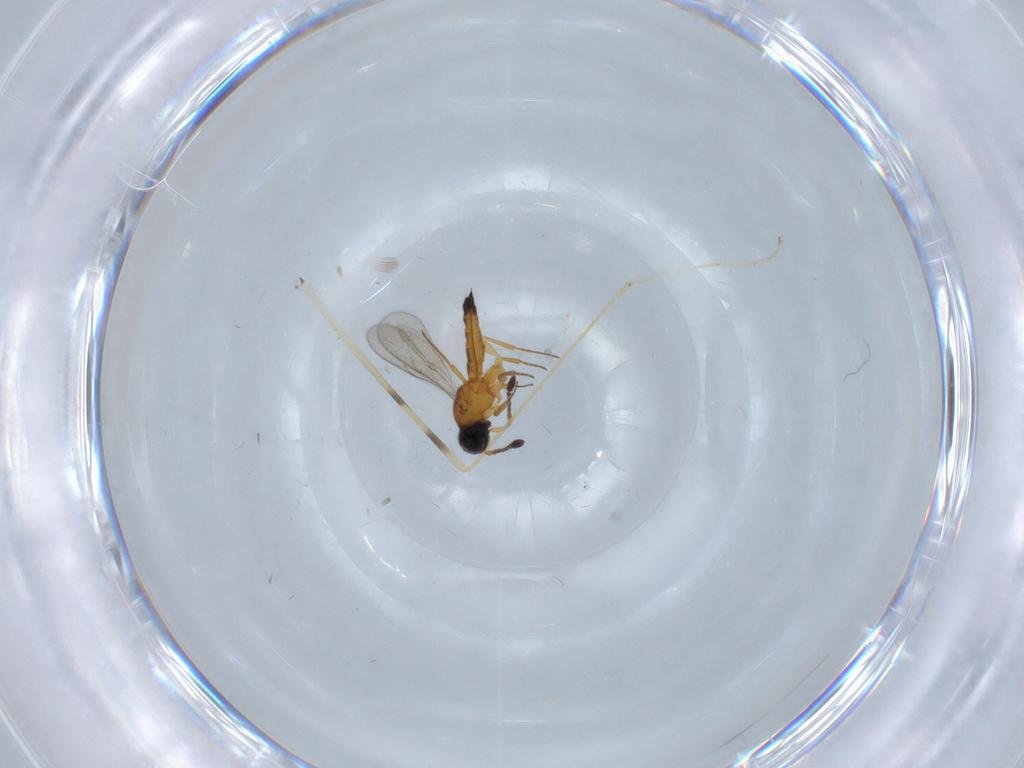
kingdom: Animalia
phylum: Arthropoda
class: Insecta
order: Hymenoptera
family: Scelionidae
